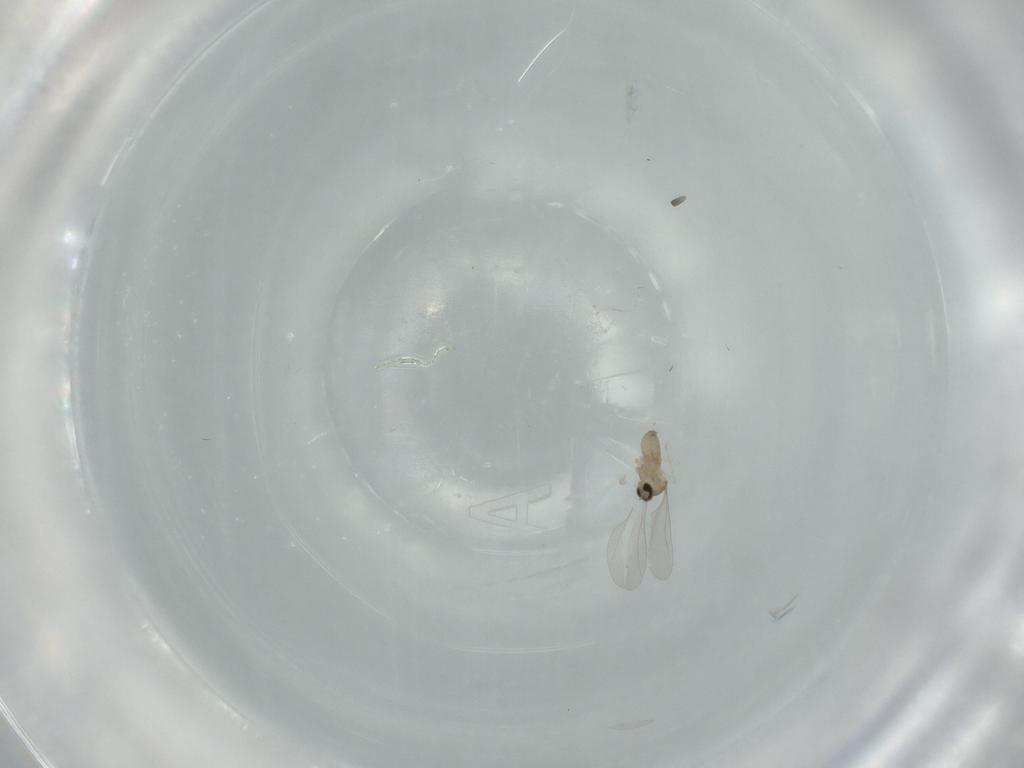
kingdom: Animalia
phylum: Arthropoda
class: Insecta
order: Diptera
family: Cecidomyiidae
